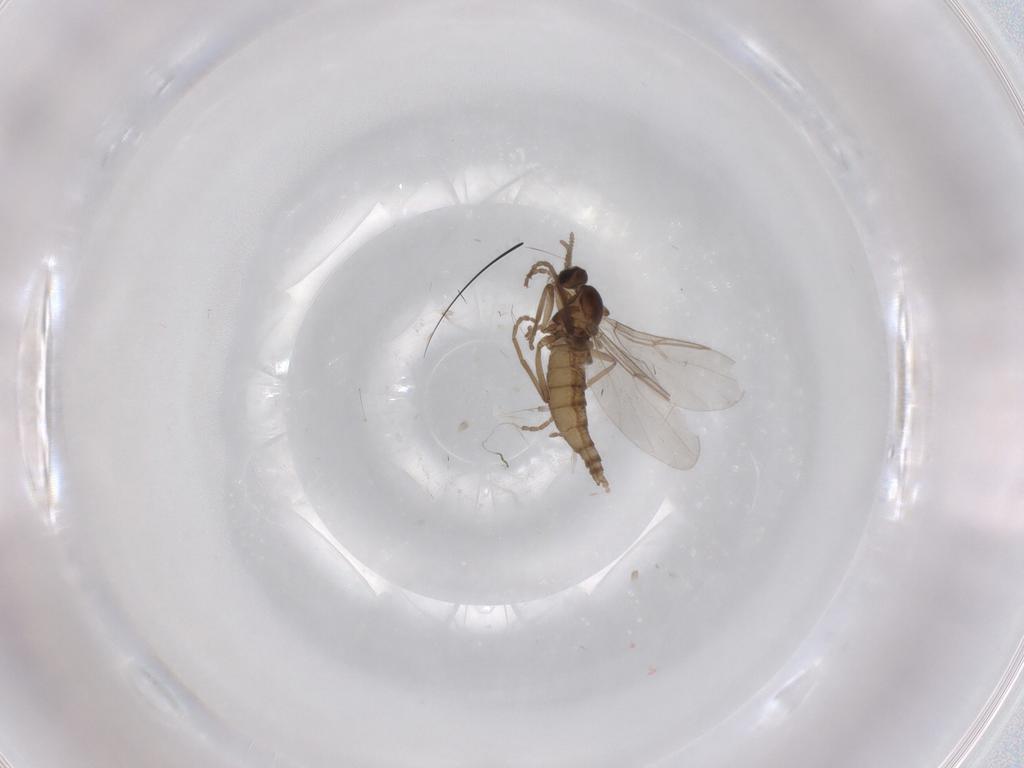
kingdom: Animalia
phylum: Arthropoda
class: Insecta
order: Diptera
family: Cecidomyiidae
